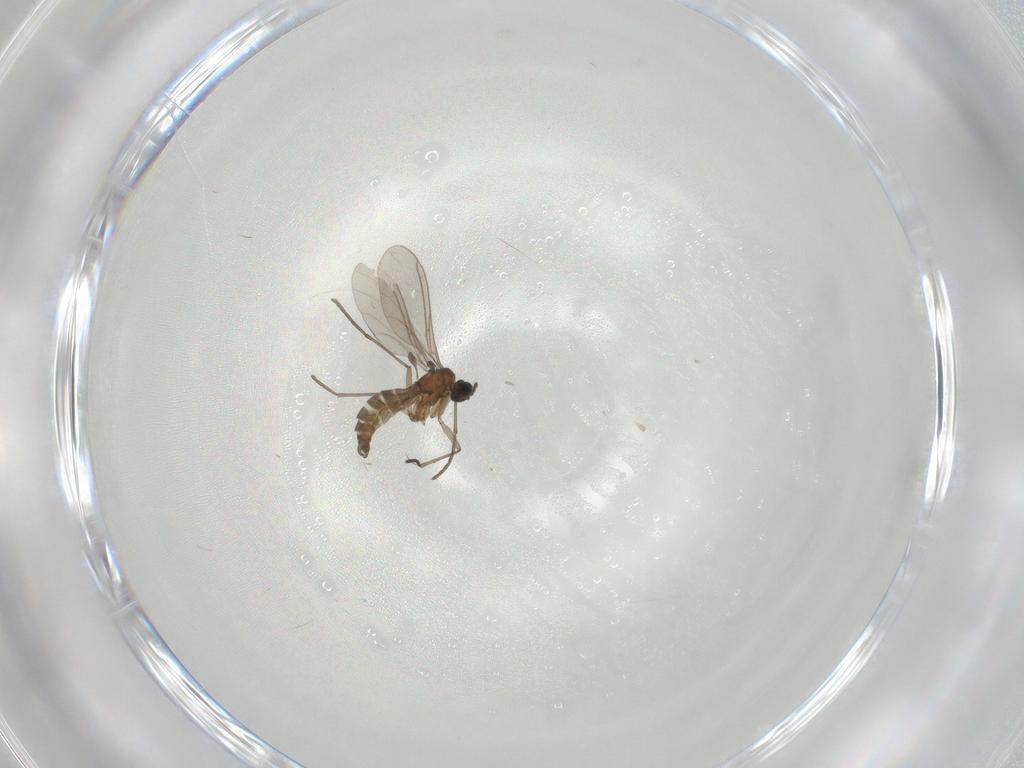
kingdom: Animalia
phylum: Arthropoda
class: Insecta
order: Diptera
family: Sciaridae
